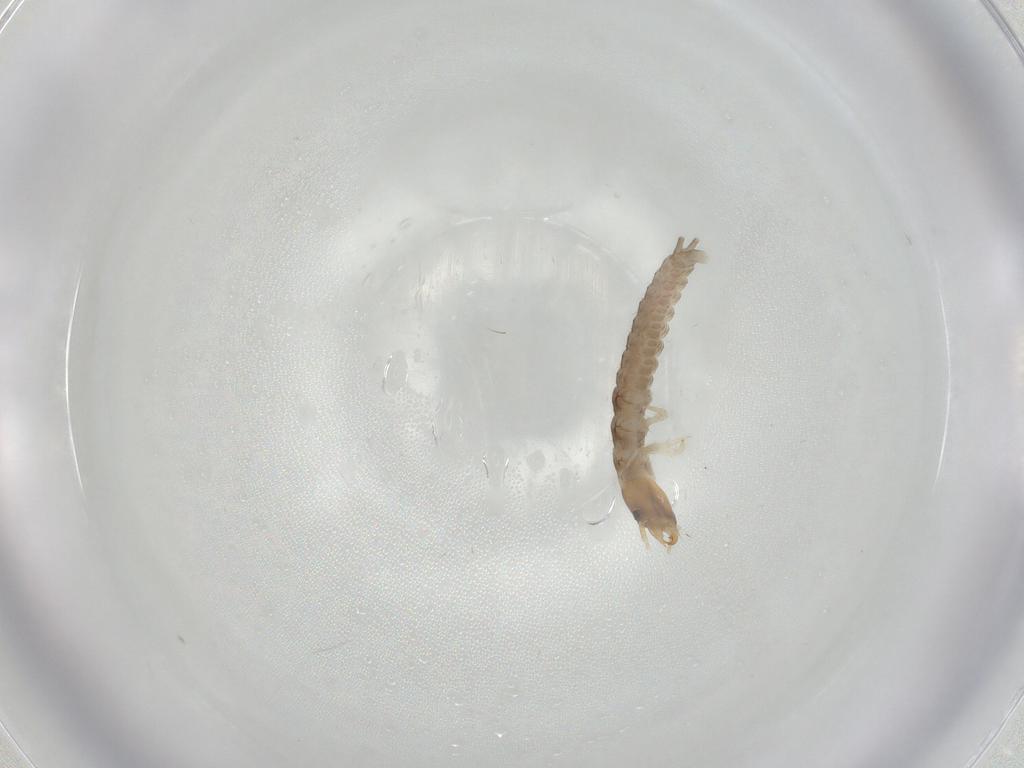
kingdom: Animalia
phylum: Arthropoda
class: Insecta
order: Coleoptera
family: Carabidae
